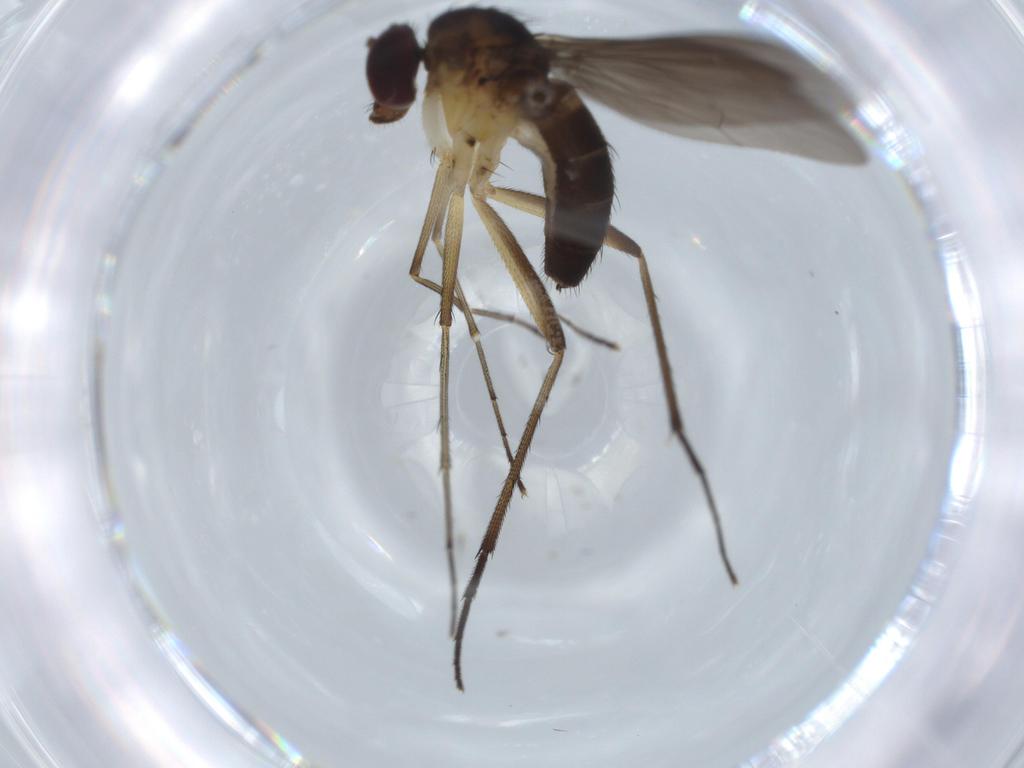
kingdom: Animalia
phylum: Arthropoda
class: Insecta
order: Diptera
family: Dolichopodidae
